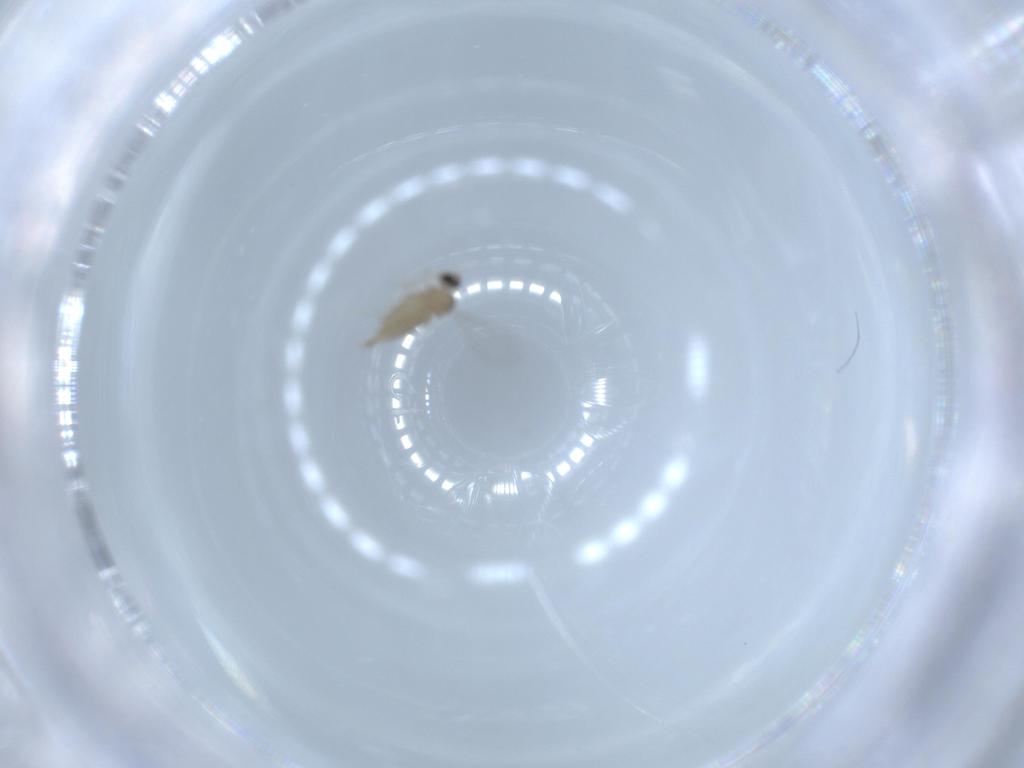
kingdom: Animalia
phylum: Arthropoda
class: Insecta
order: Diptera
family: Cecidomyiidae
